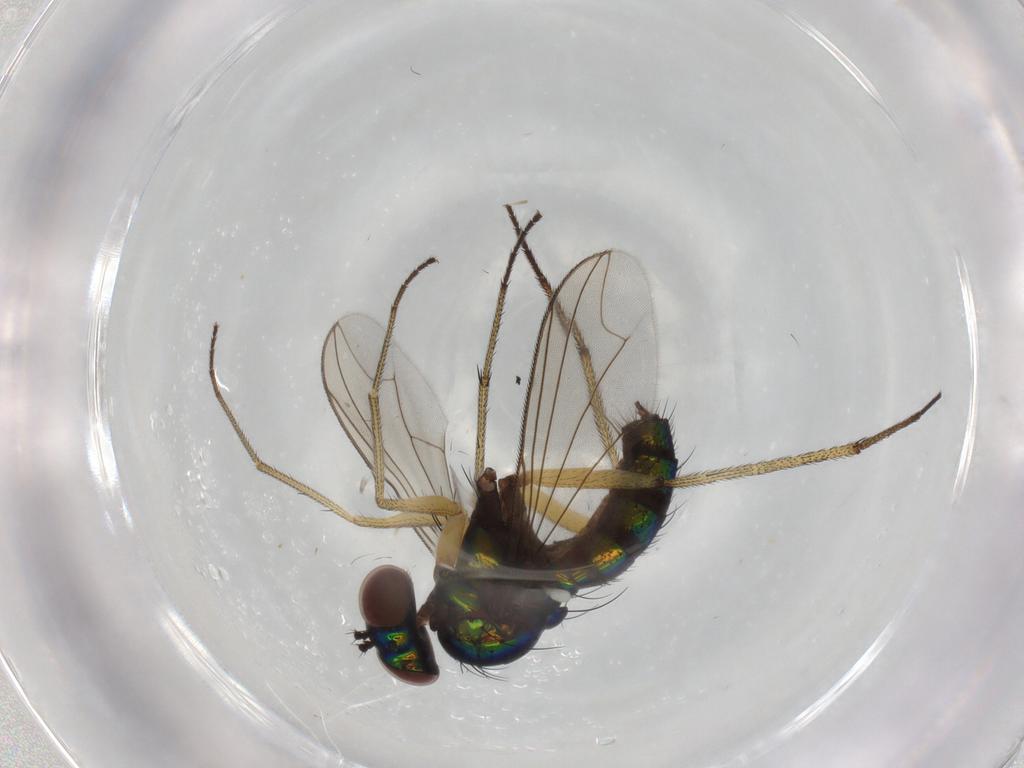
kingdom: Animalia
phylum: Arthropoda
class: Insecta
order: Diptera
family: Dolichopodidae
